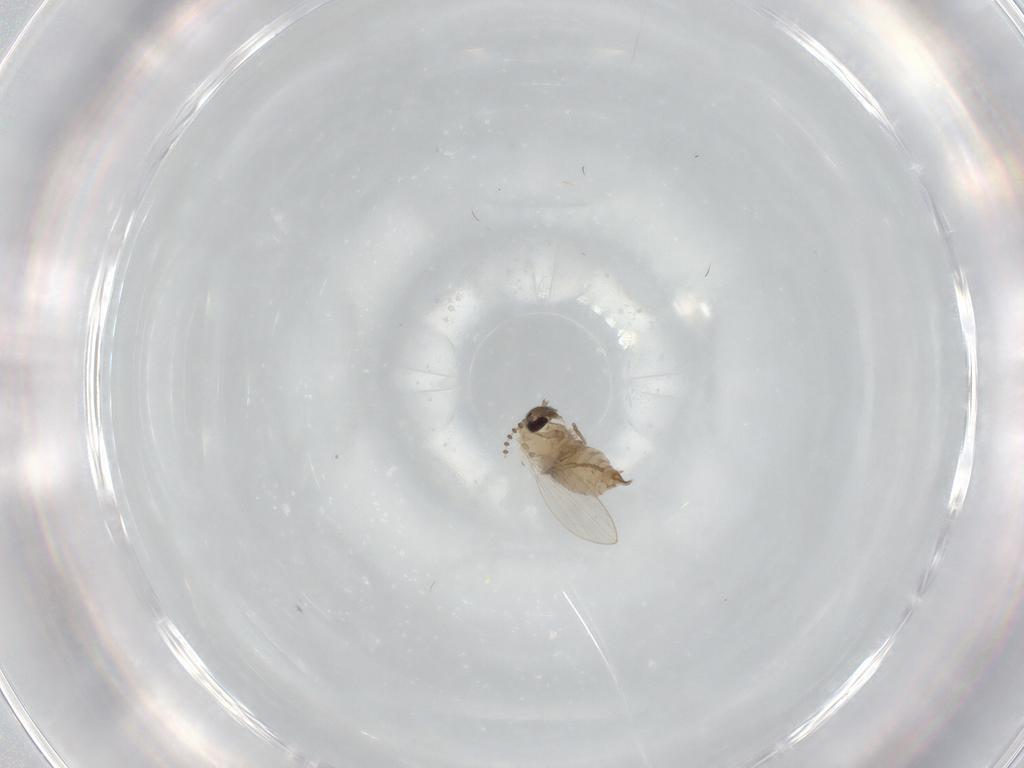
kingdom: Animalia
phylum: Arthropoda
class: Insecta
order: Diptera
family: Psychodidae
